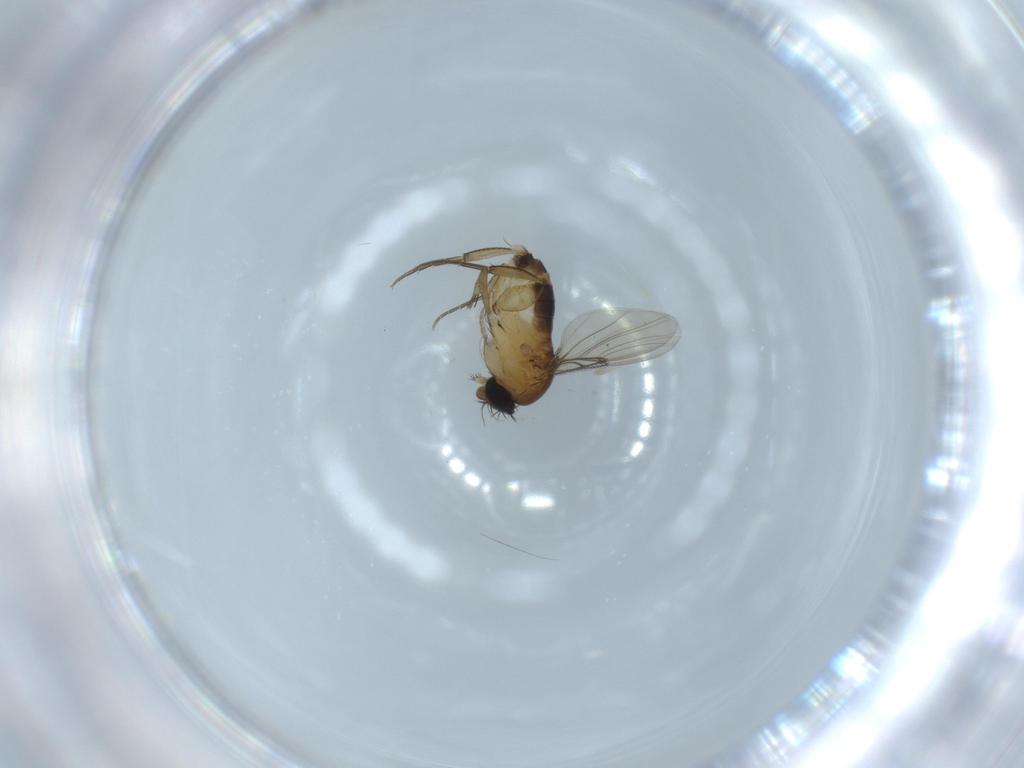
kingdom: Animalia
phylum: Arthropoda
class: Insecta
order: Diptera
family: Phoridae
